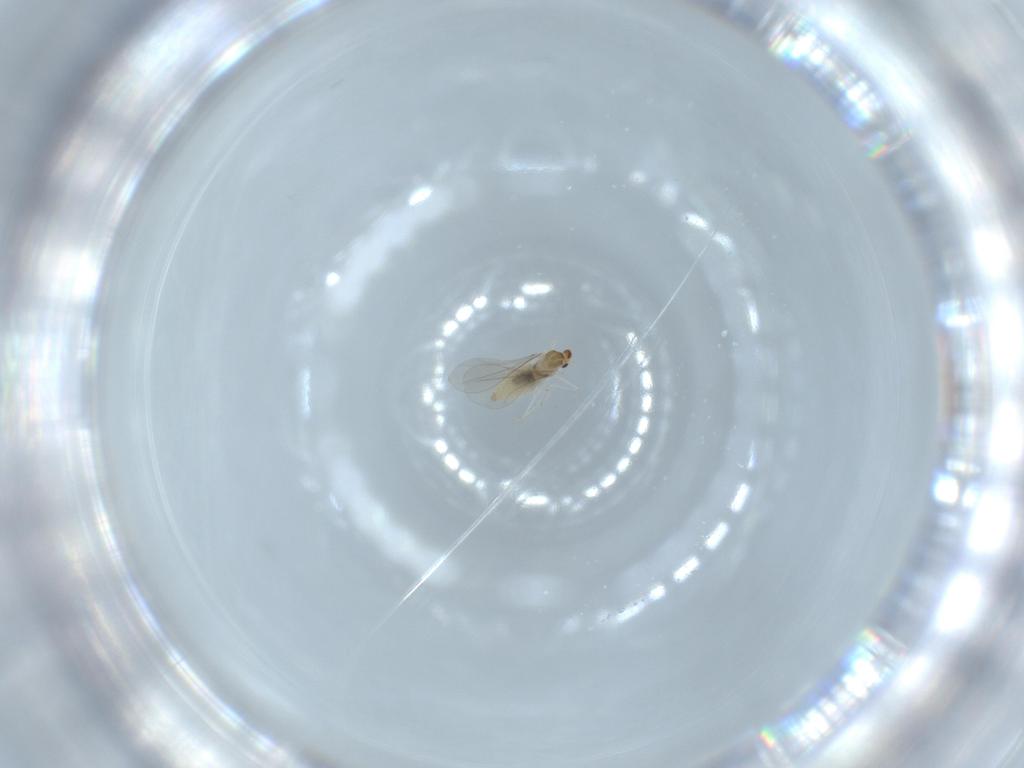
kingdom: Animalia
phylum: Arthropoda
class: Insecta
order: Diptera
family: Cecidomyiidae
